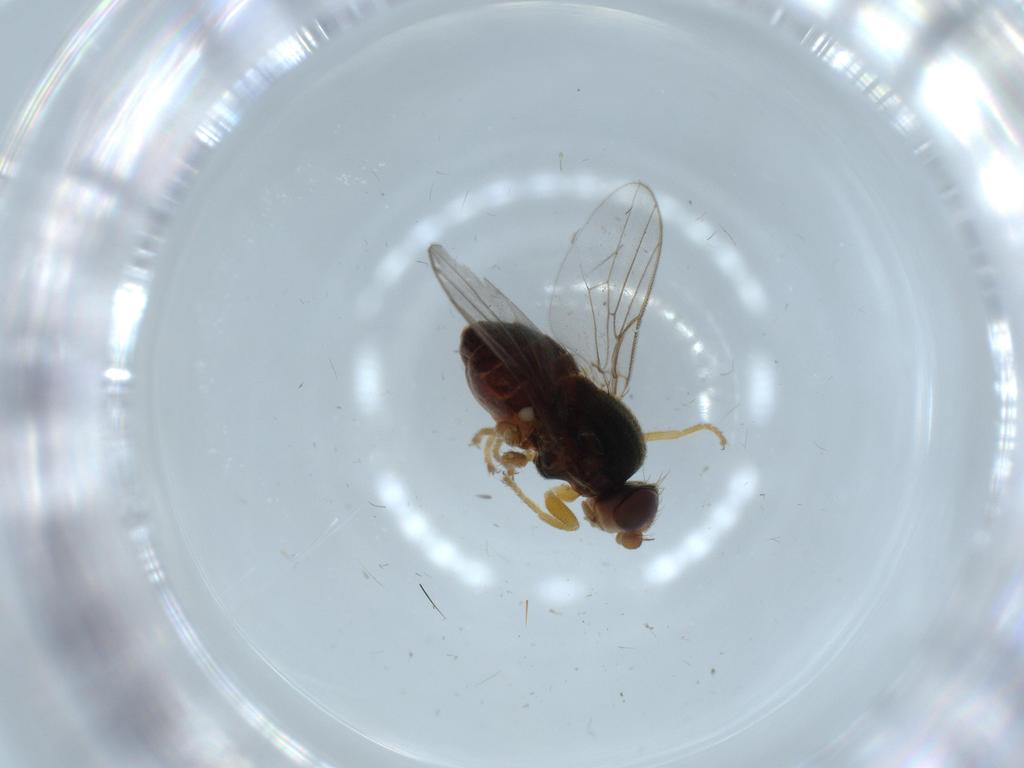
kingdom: Animalia
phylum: Arthropoda
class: Insecta
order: Diptera
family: Chloropidae
